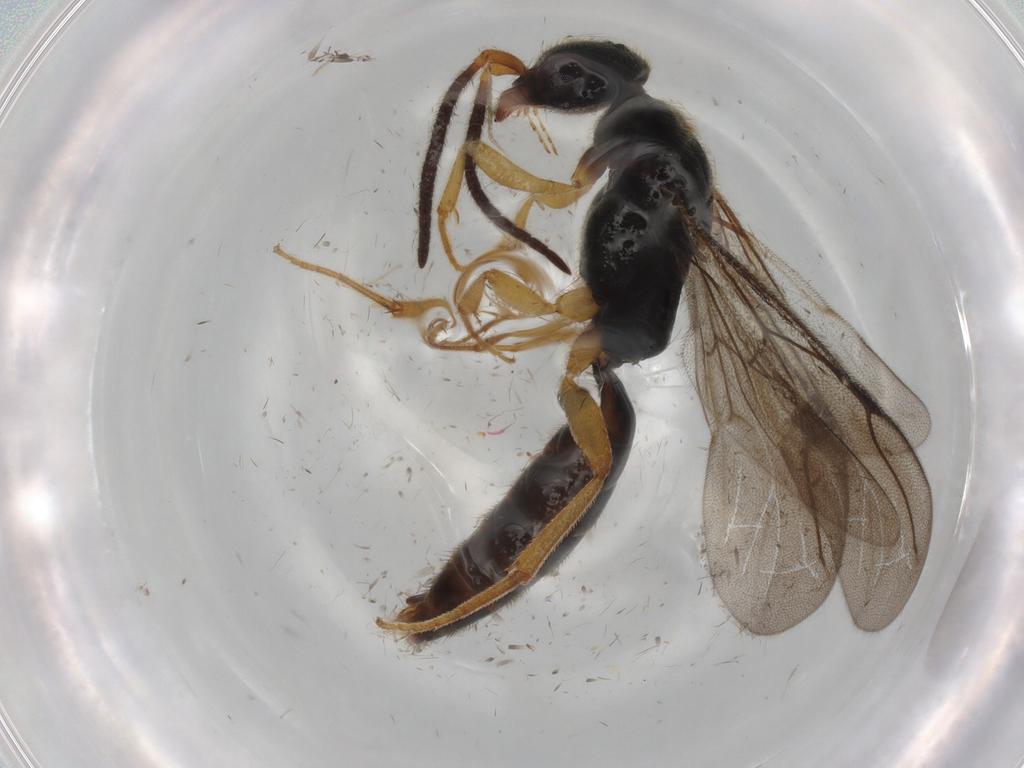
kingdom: Animalia
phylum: Arthropoda
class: Insecta
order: Hymenoptera
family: Bethylidae
